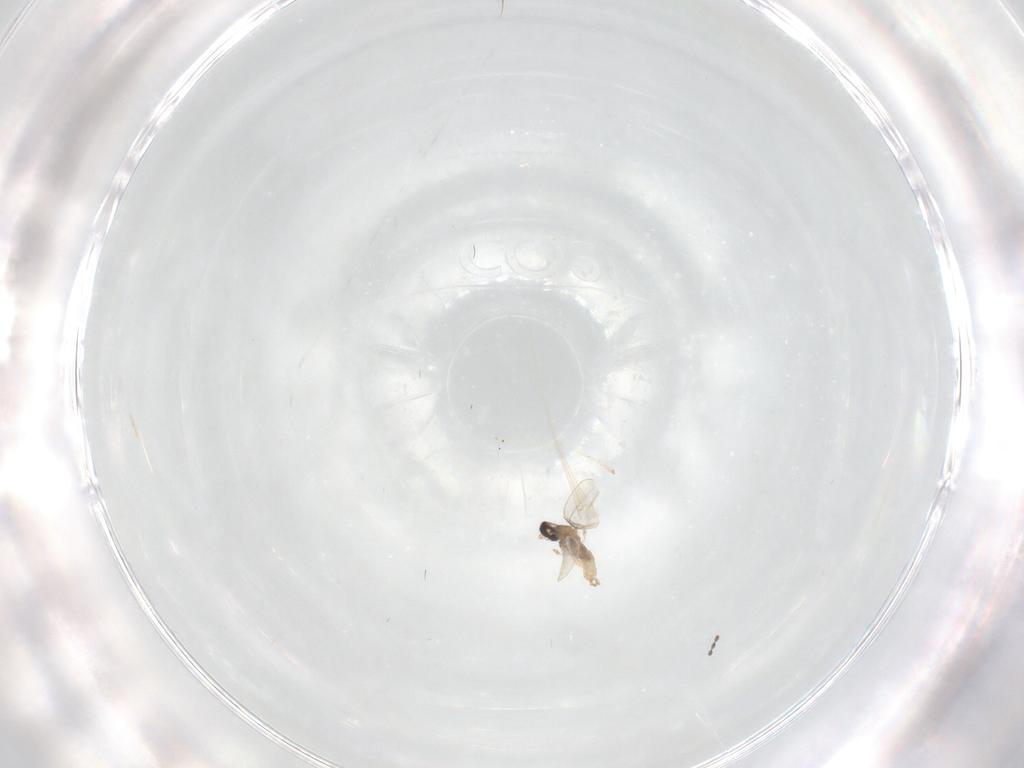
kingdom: Animalia
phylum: Arthropoda
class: Insecta
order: Diptera
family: Cecidomyiidae
